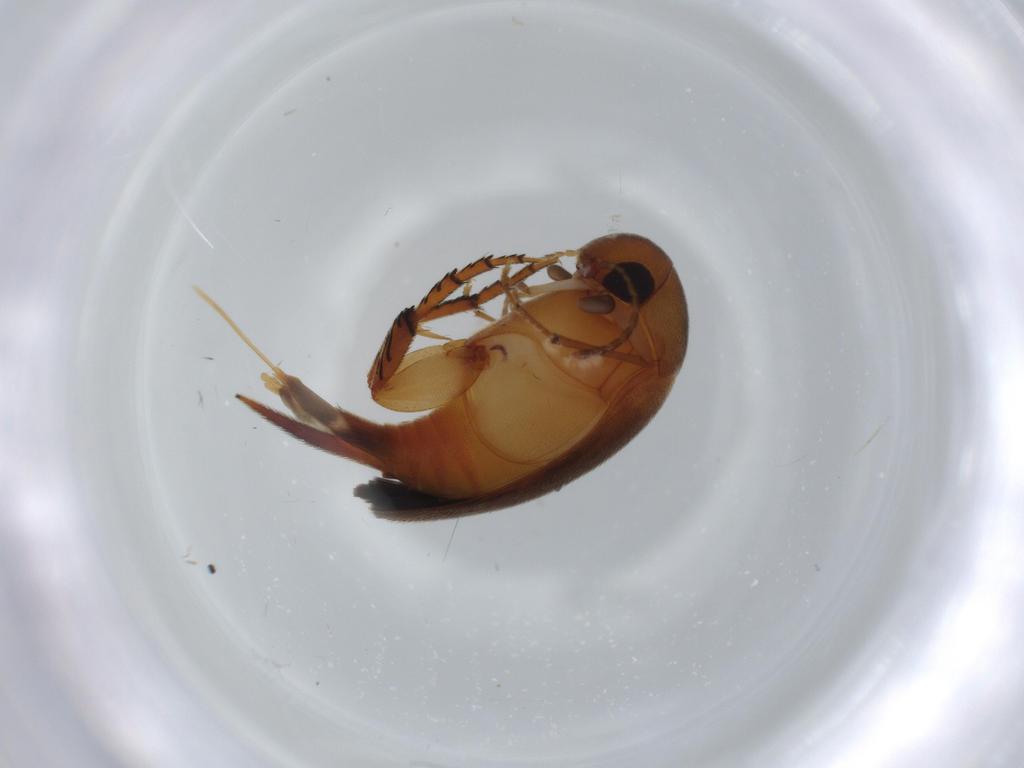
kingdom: Animalia
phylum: Arthropoda
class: Insecta
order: Coleoptera
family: Mordellidae
